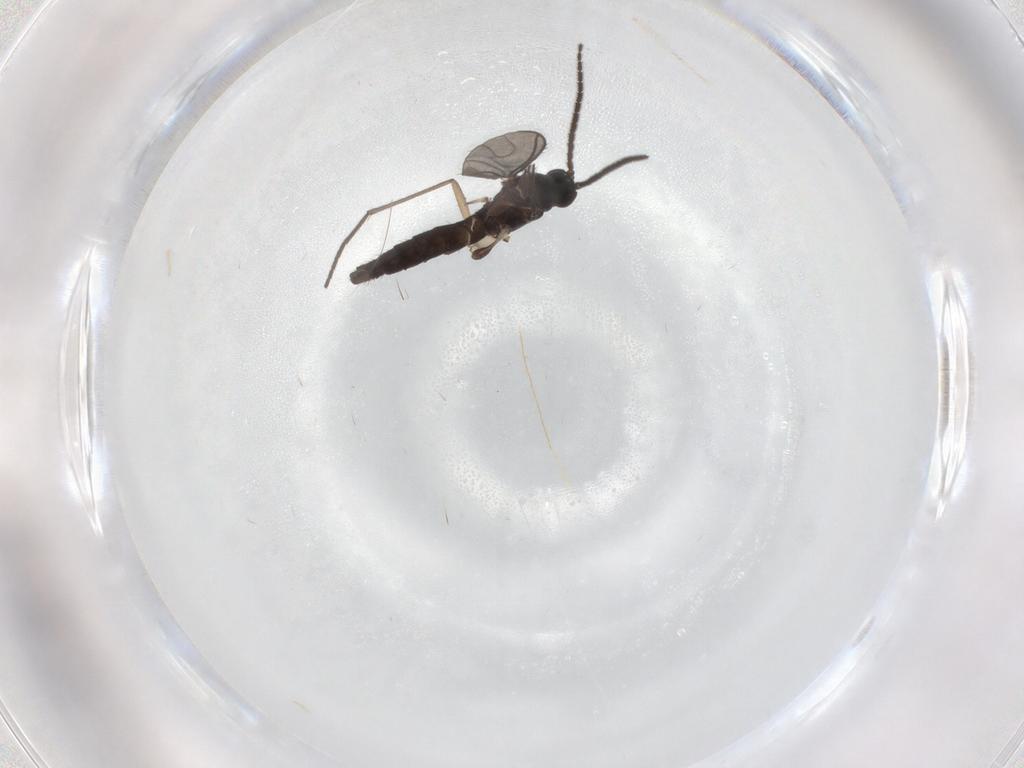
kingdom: Animalia
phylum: Arthropoda
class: Insecta
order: Diptera
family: Phoridae
